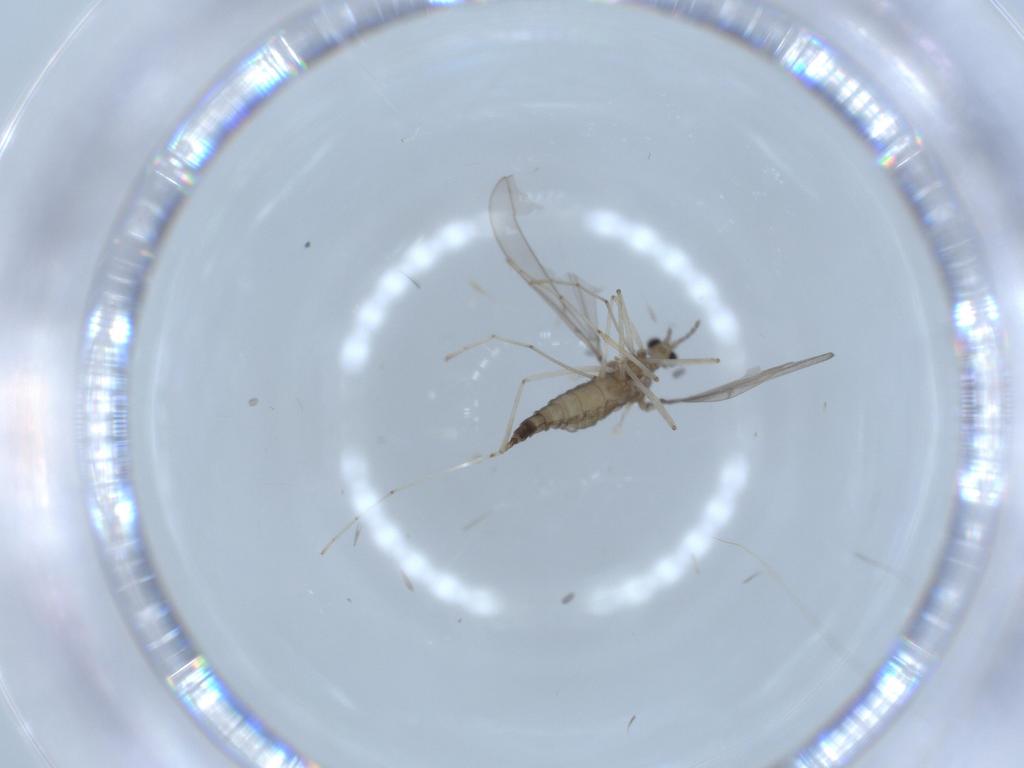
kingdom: Animalia
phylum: Arthropoda
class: Insecta
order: Diptera
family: Cecidomyiidae
